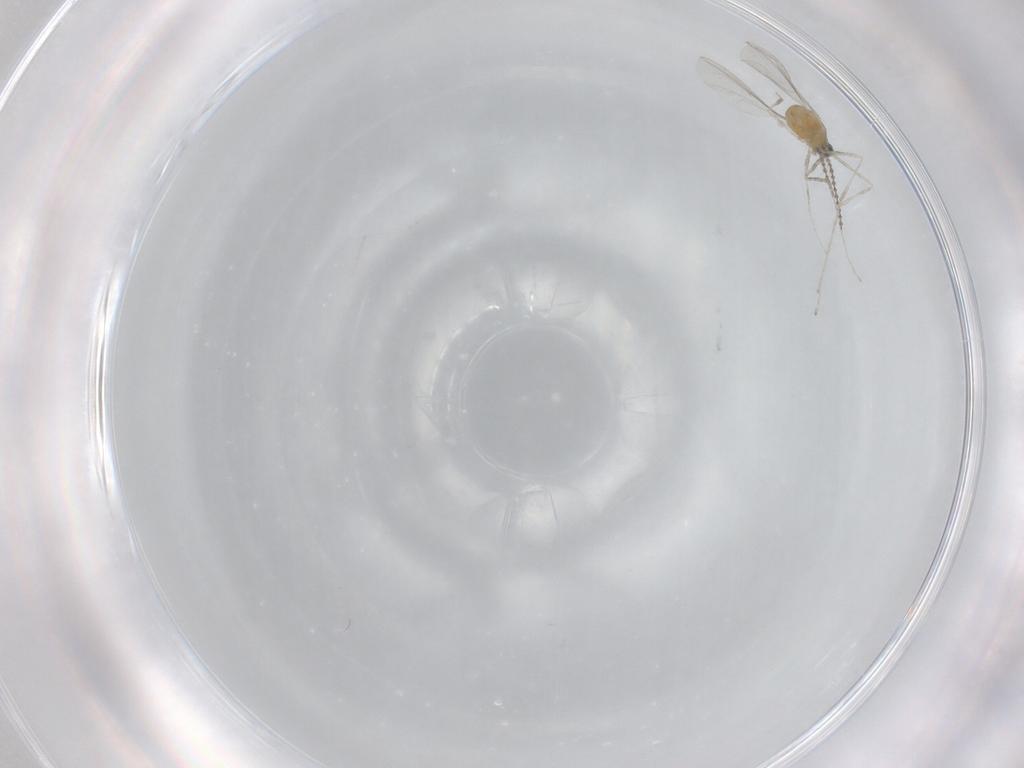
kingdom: Animalia
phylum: Arthropoda
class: Insecta
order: Diptera
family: Cecidomyiidae
